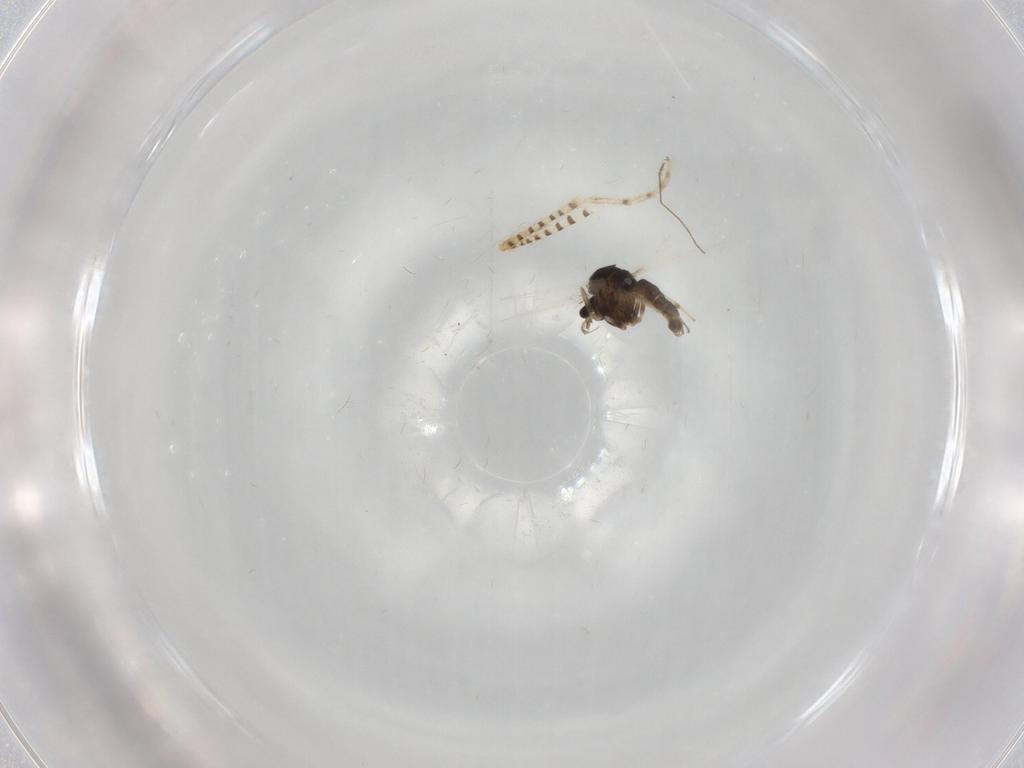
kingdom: Animalia
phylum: Arthropoda
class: Insecta
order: Diptera
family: Chaoboridae
